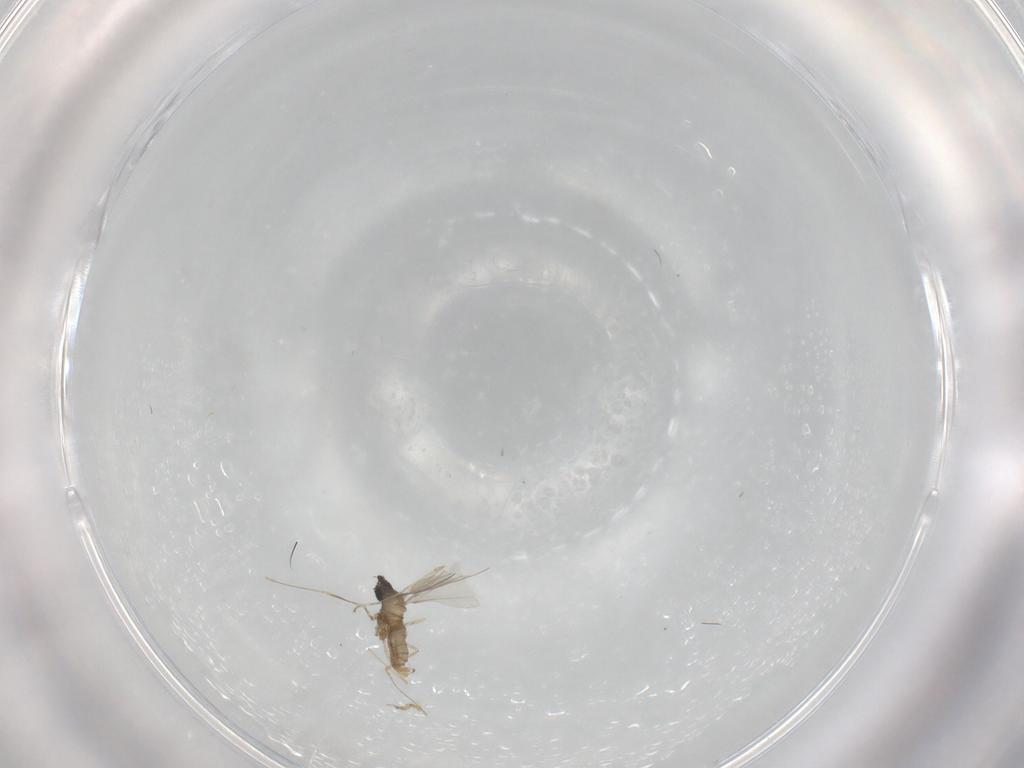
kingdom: Animalia
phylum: Arthropoda
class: Insecta
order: Diptera
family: Cecidomyiidae
